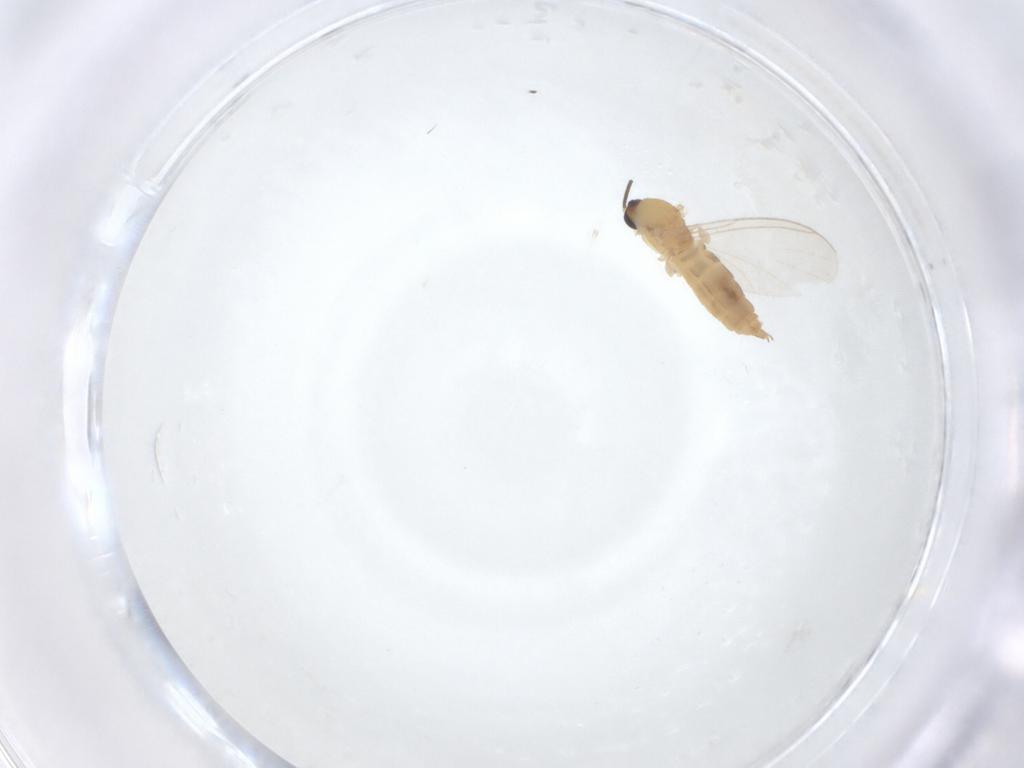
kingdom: Animalia
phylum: Arthropoda
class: Insecta
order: Diptera
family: Sciaridae
